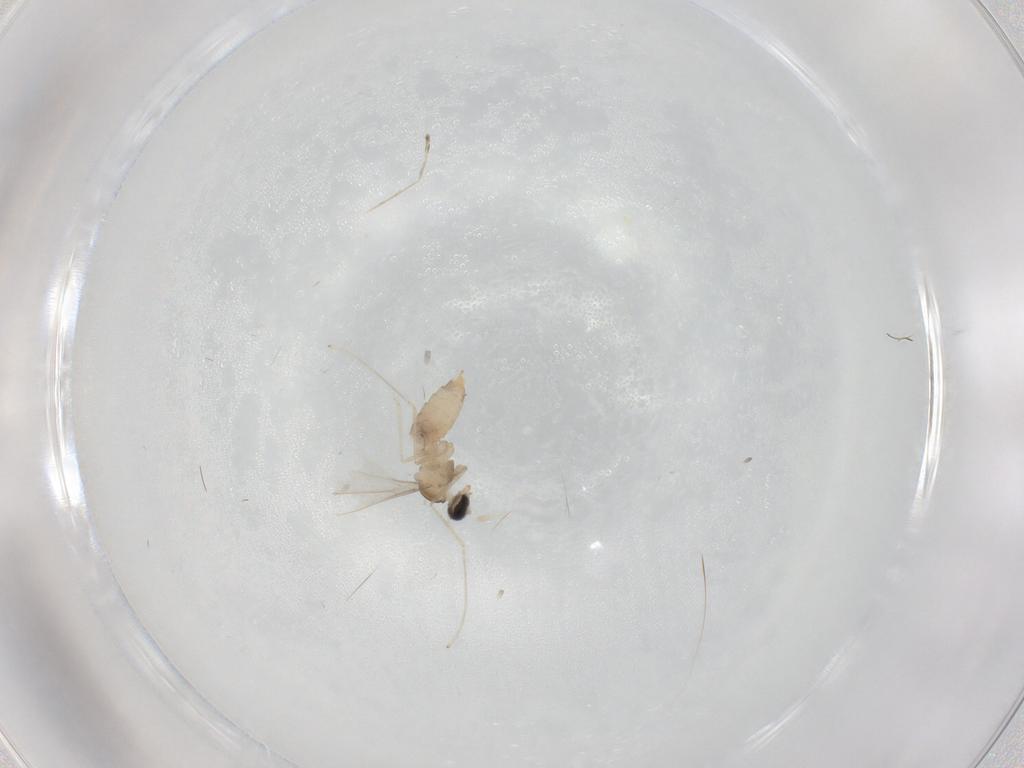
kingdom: Animalia
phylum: Arthropoda
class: Insecta
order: Diptera
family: Cecidomyiidae
